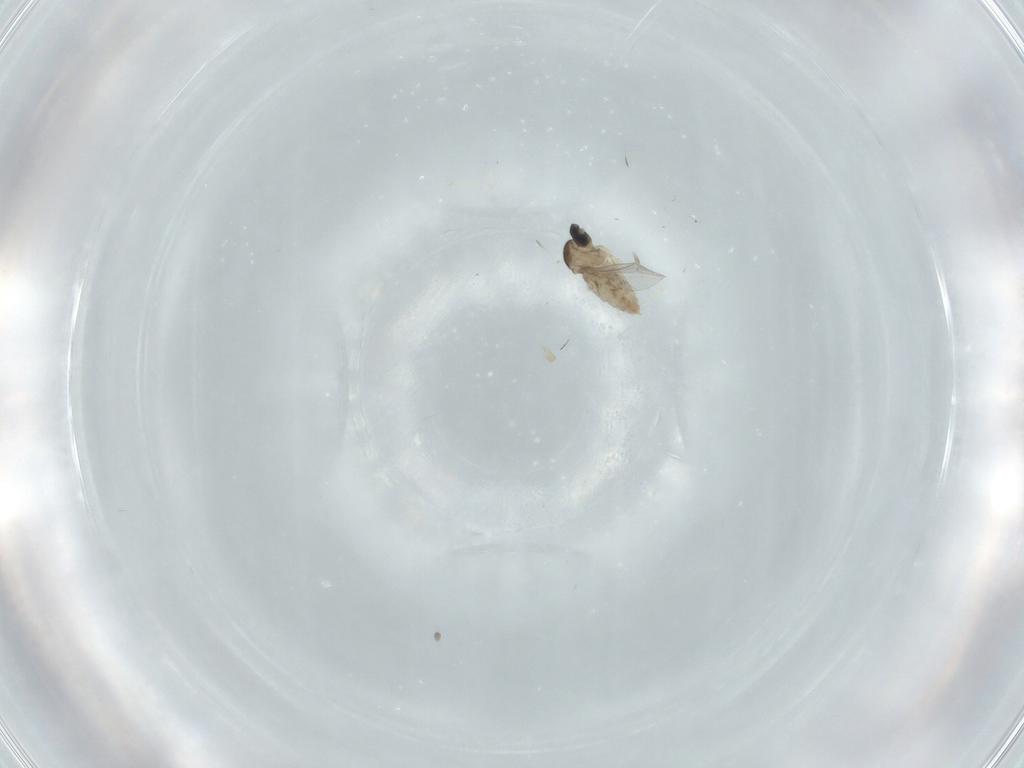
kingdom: Animalia
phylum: Arthropoda
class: Insecta
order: Diptera
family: Cecidomyiidae
